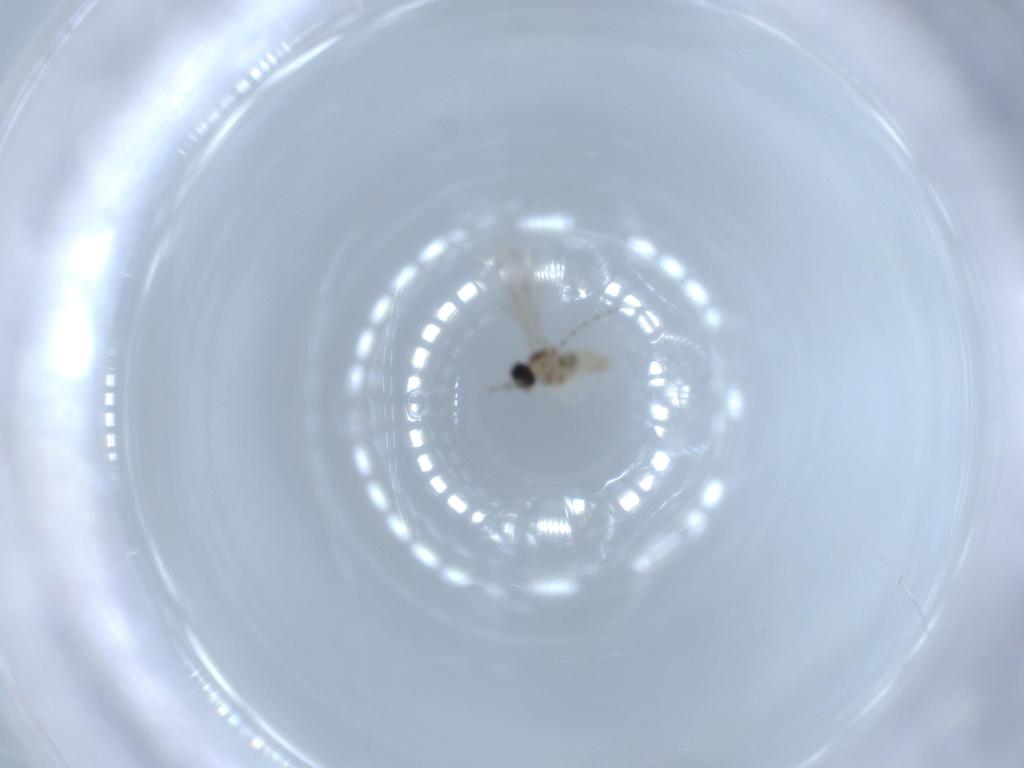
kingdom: Animalia
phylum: Arthropoda
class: Insecta
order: Diptera
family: Cecidomyiidae
